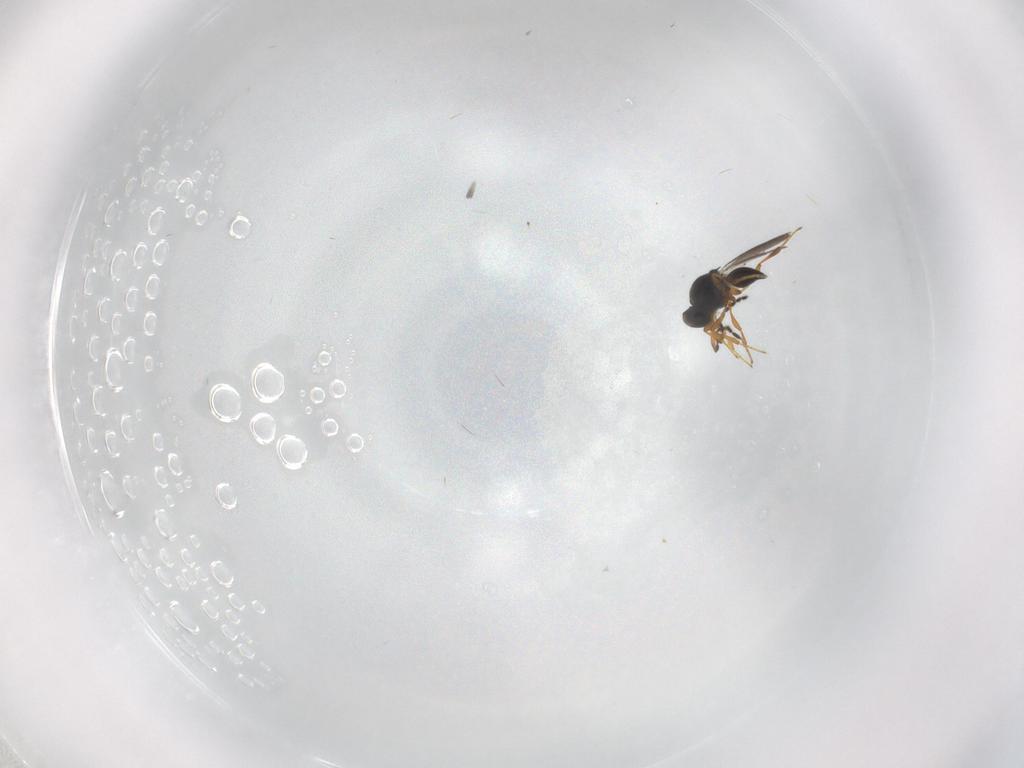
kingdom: Animalia
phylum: Arthropoda
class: Insecta
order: Hymenoptera
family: Platygastridae
